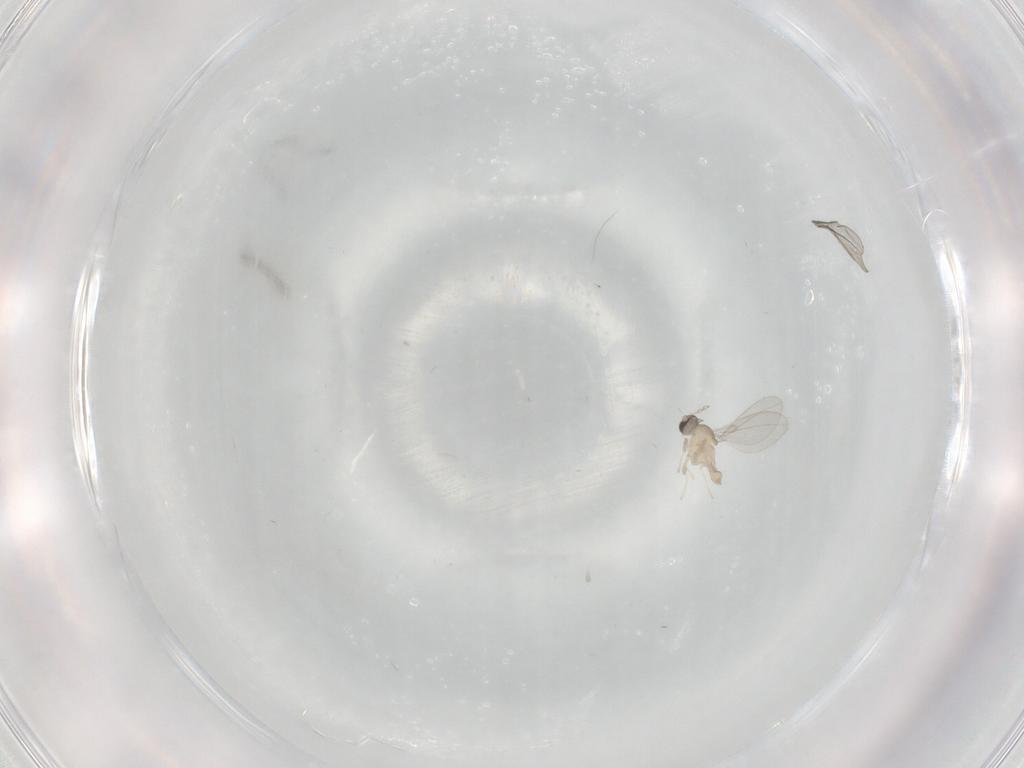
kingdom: Animalia
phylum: Arthropoda
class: Insecta
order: Diptera
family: Cecidomyiidae
